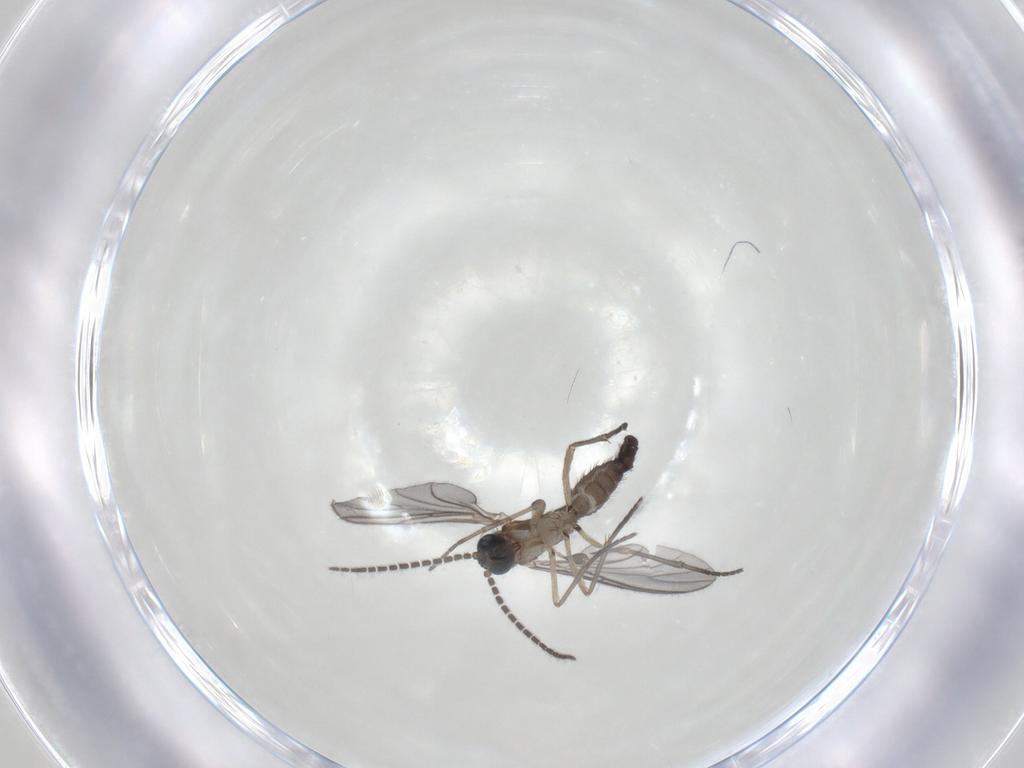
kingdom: Animalia
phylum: Arthropoda
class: Insecta
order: Diptera
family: Sciaridae
